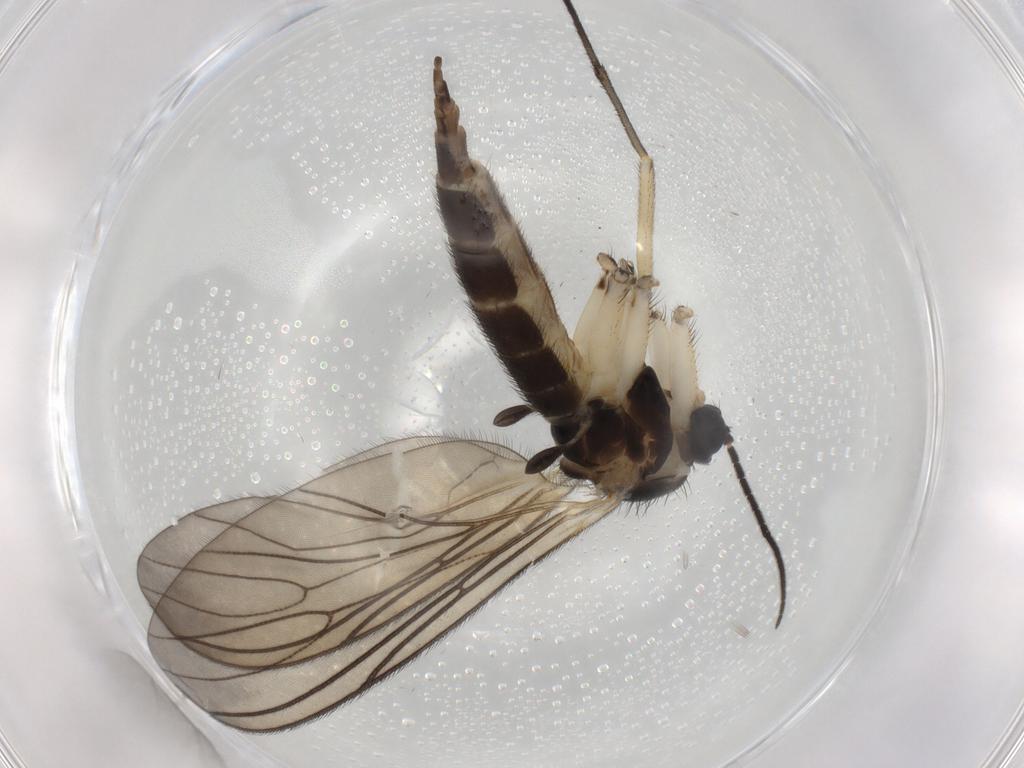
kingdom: Animalia
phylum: Arthropoda
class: Insecta
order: Diptera
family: Sciaridae
